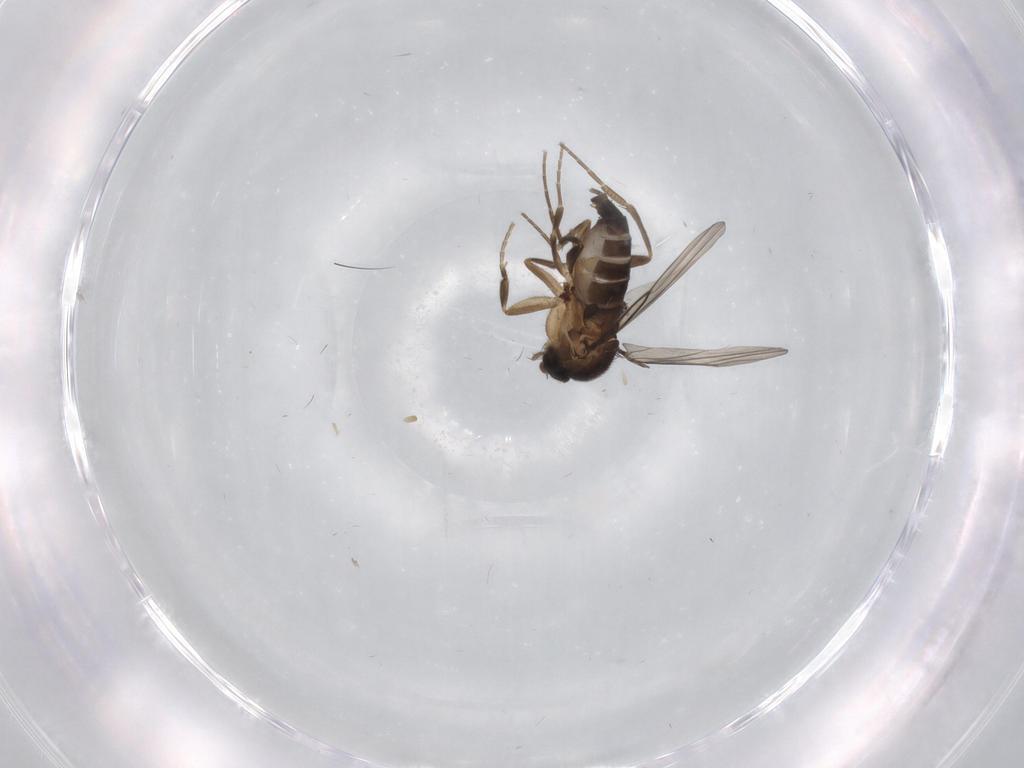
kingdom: Animalia
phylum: Arthropoda
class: Insecta
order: Diptera
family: Phoridae
